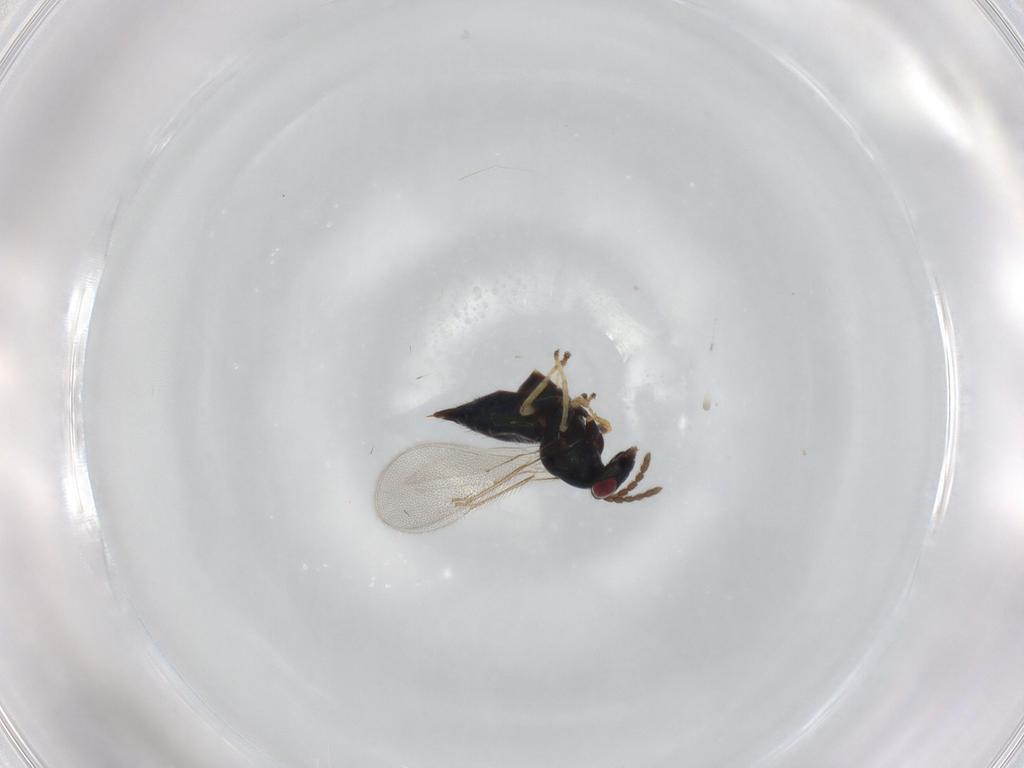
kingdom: Animalia
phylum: Arthropoda
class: Insecta
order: Hymenoptera
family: Eulophidae
